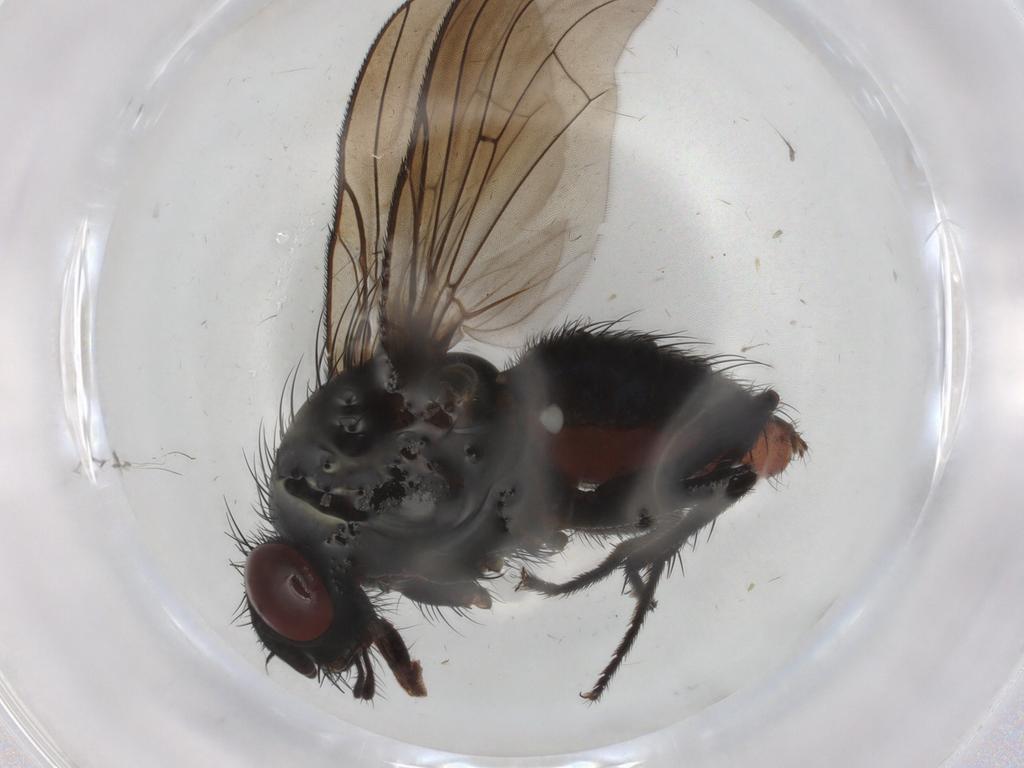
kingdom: Animalia
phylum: Arthropoda
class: Insecta
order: Diptera
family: Anthomyiidae
